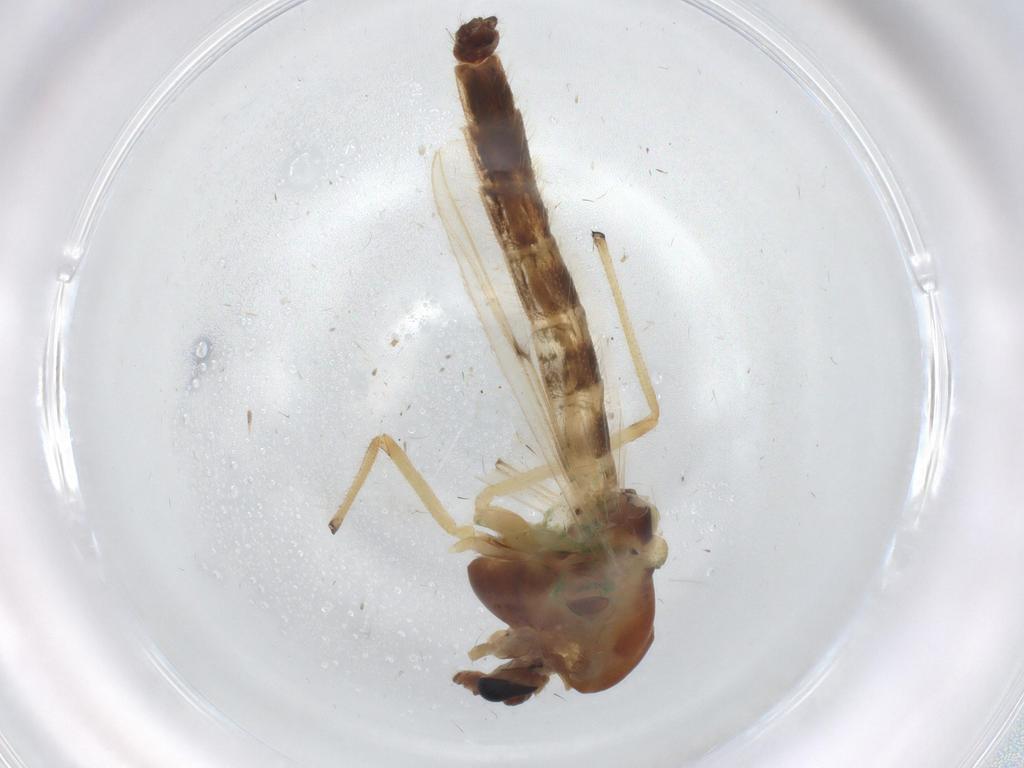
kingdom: Animalia
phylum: Arthropoda
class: Insecta
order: Diptera
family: Chironomidae
